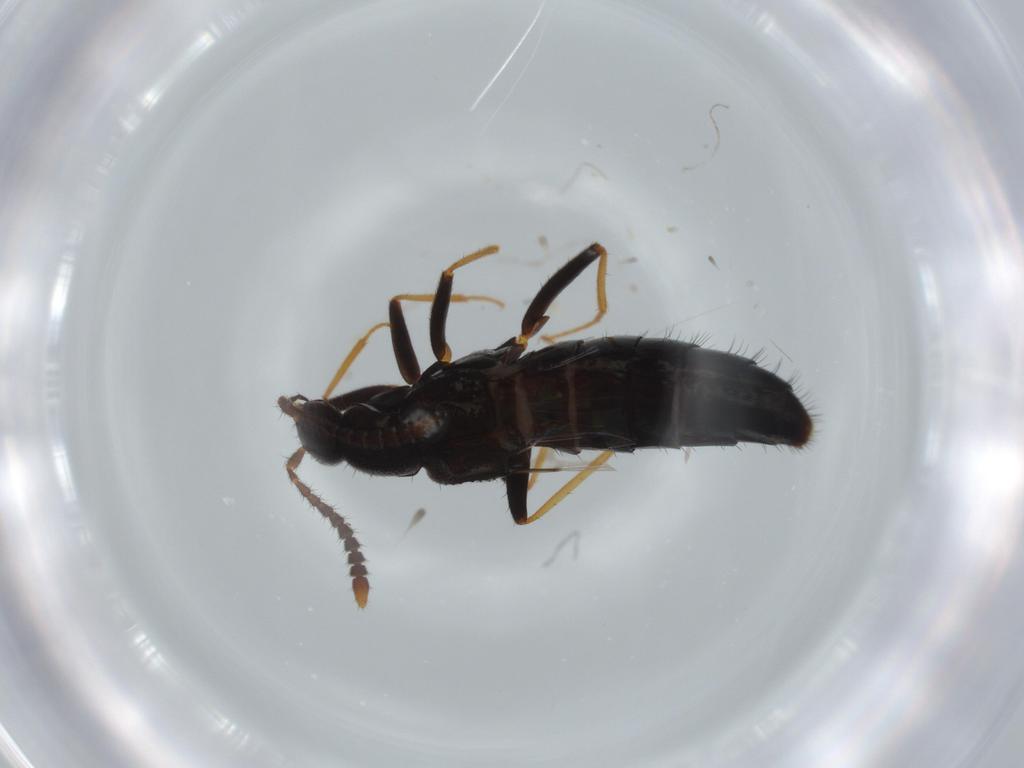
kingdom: Animalia
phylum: Arthropoda
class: Insecta
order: Coleoptera
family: Staphylinidae
